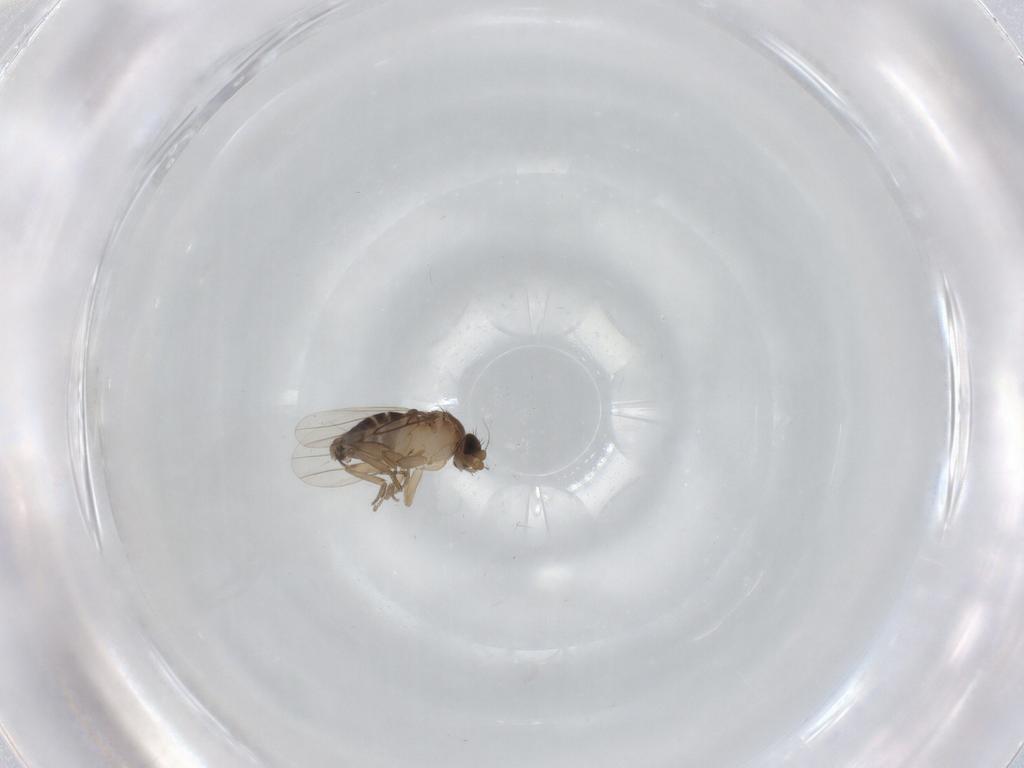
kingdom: Animalia
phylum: Arthropoda
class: Insecta
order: Diptera
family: Phoridae
